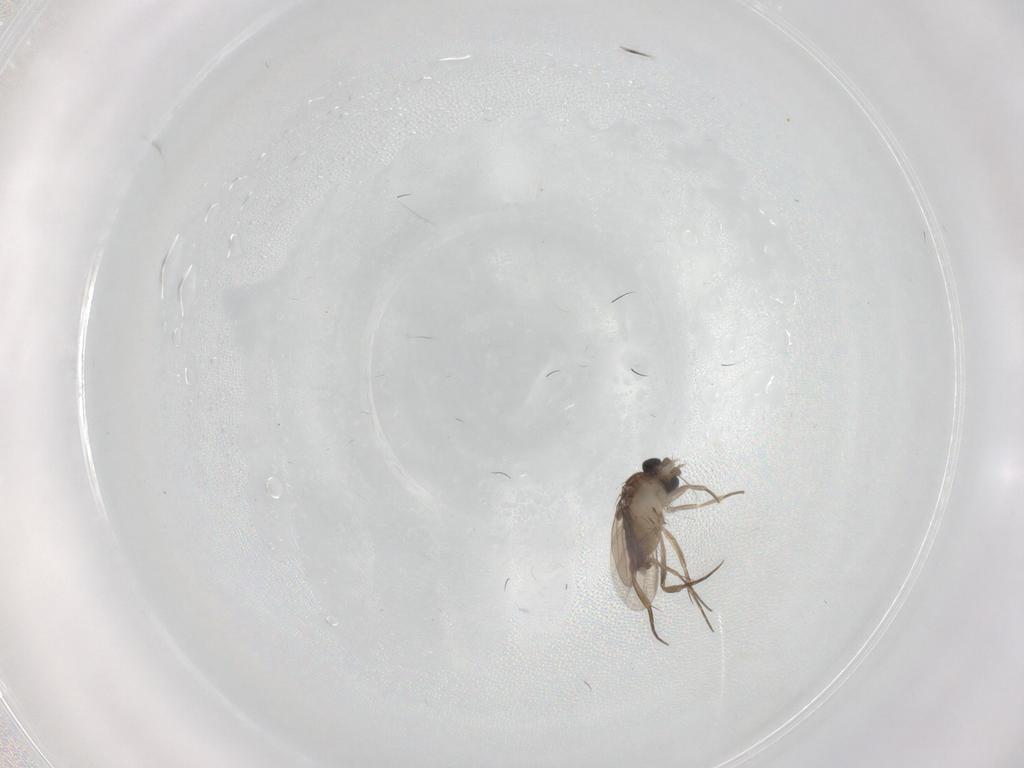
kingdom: Animalia
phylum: Arthropoda
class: Insecta
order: Diptera
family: Phoridae
